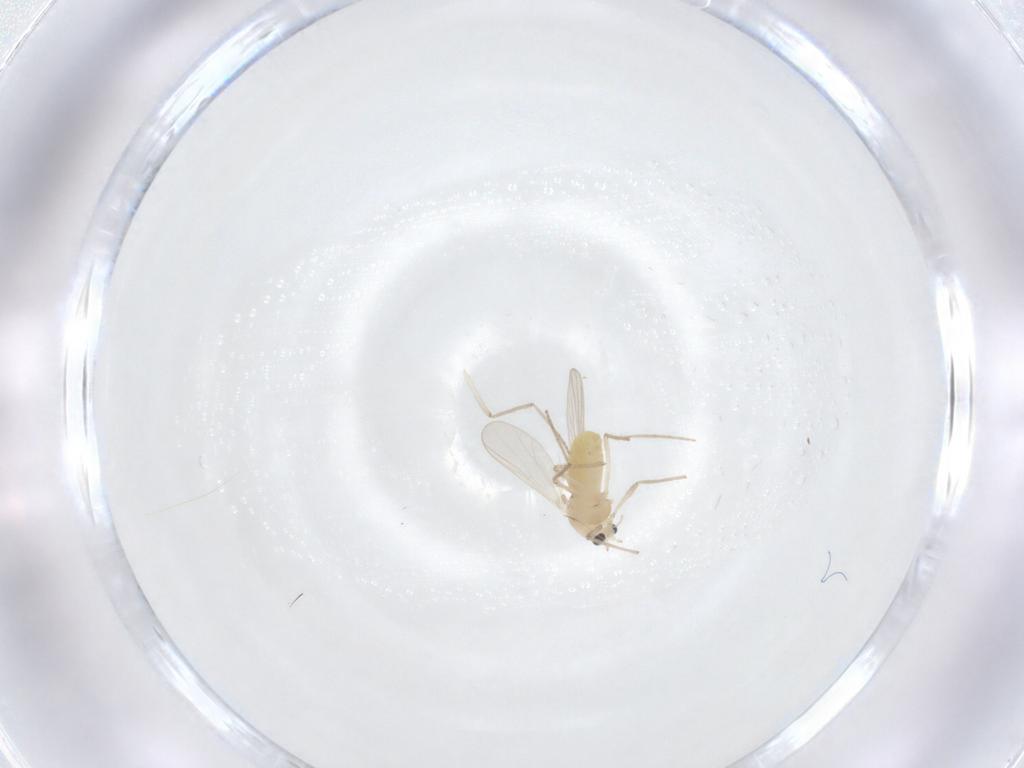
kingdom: Animalia
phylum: Arthropoda
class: Insecta
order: Diptera
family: Chironomidae
